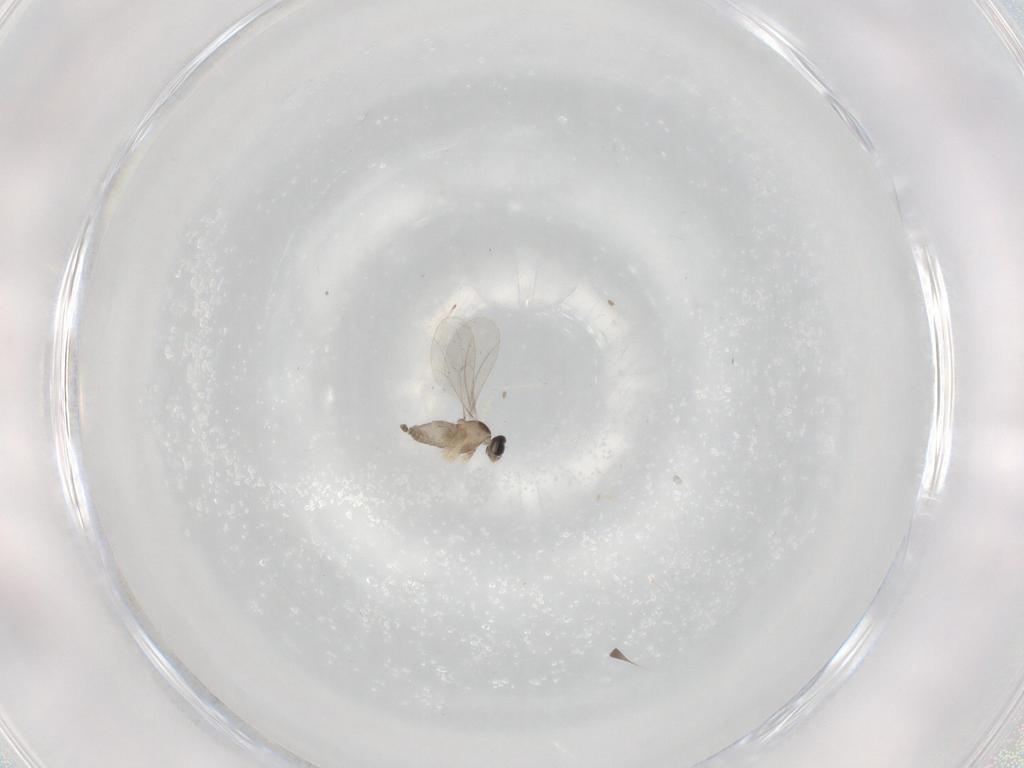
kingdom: Animalia
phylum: Arthropoda
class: Insecta
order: Diptera
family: Cecidomyiidae
